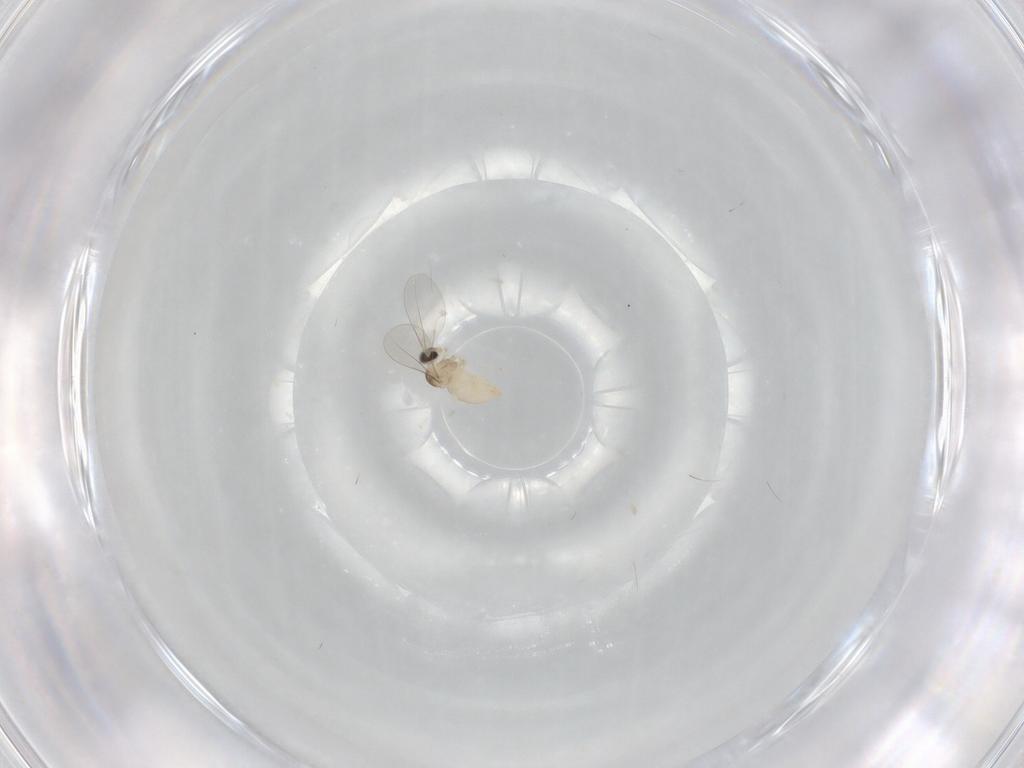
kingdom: Animalia
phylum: Arthropoda
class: Insecta
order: Diptera
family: Cecidomyiidae
